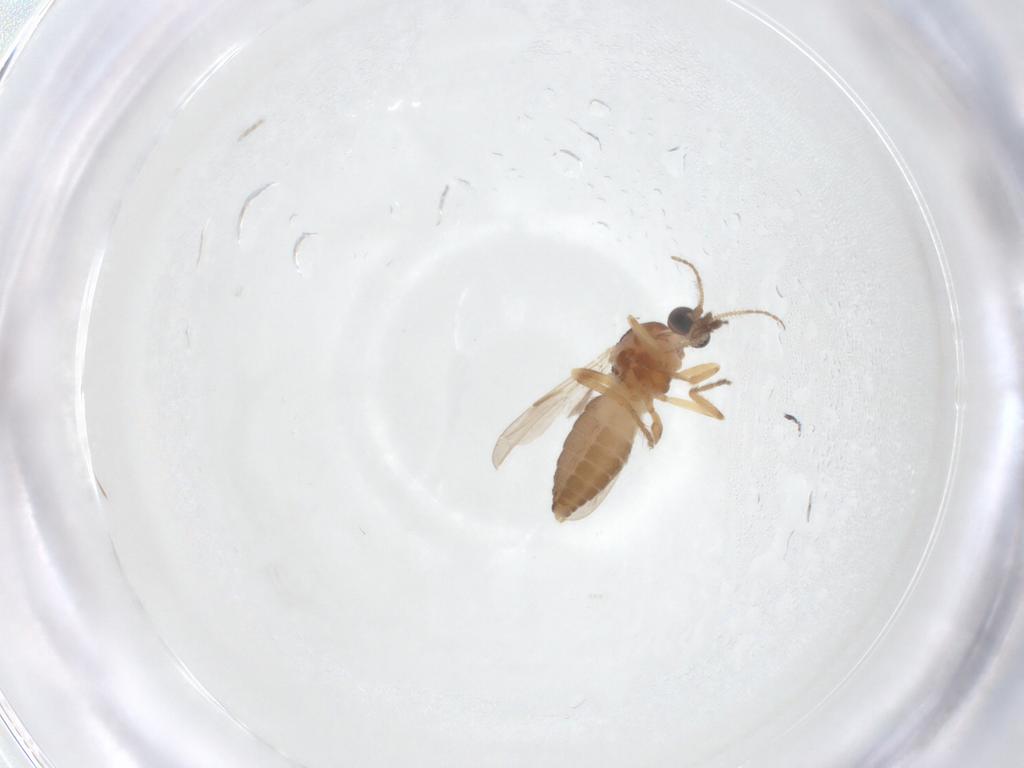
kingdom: Animalia
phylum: Arthropoda
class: Insecta
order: Diptera
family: Ceratopogonidae
